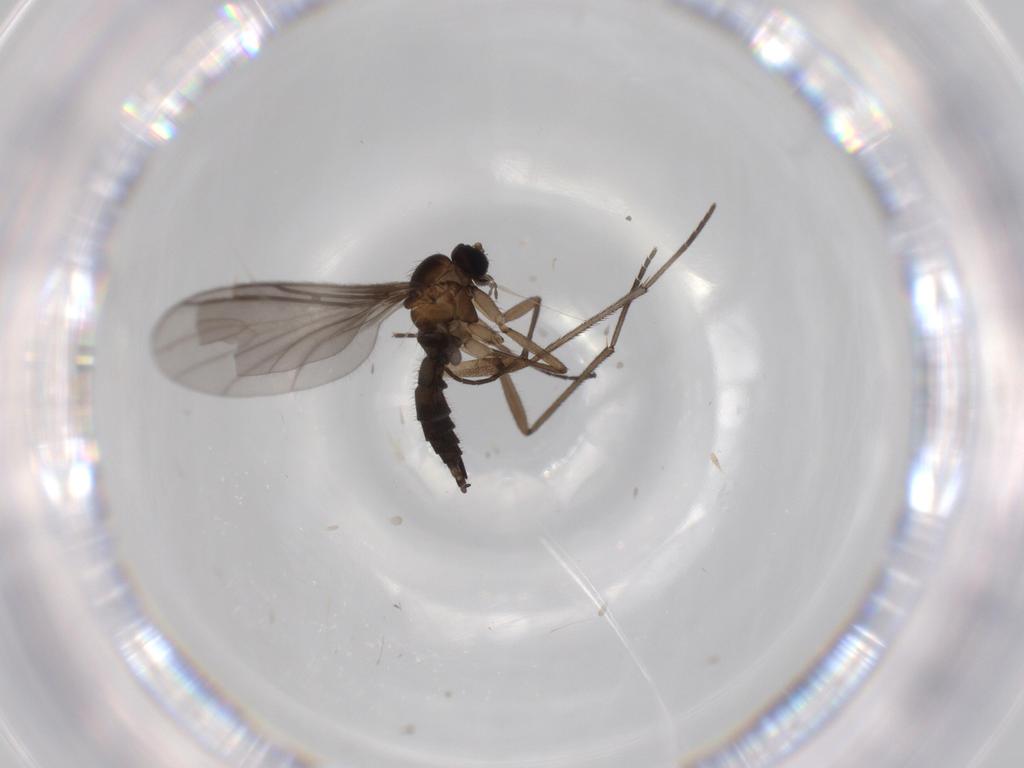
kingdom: Animalia
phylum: Arthropoda
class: Insecta
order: Diptera
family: Sciaridae
